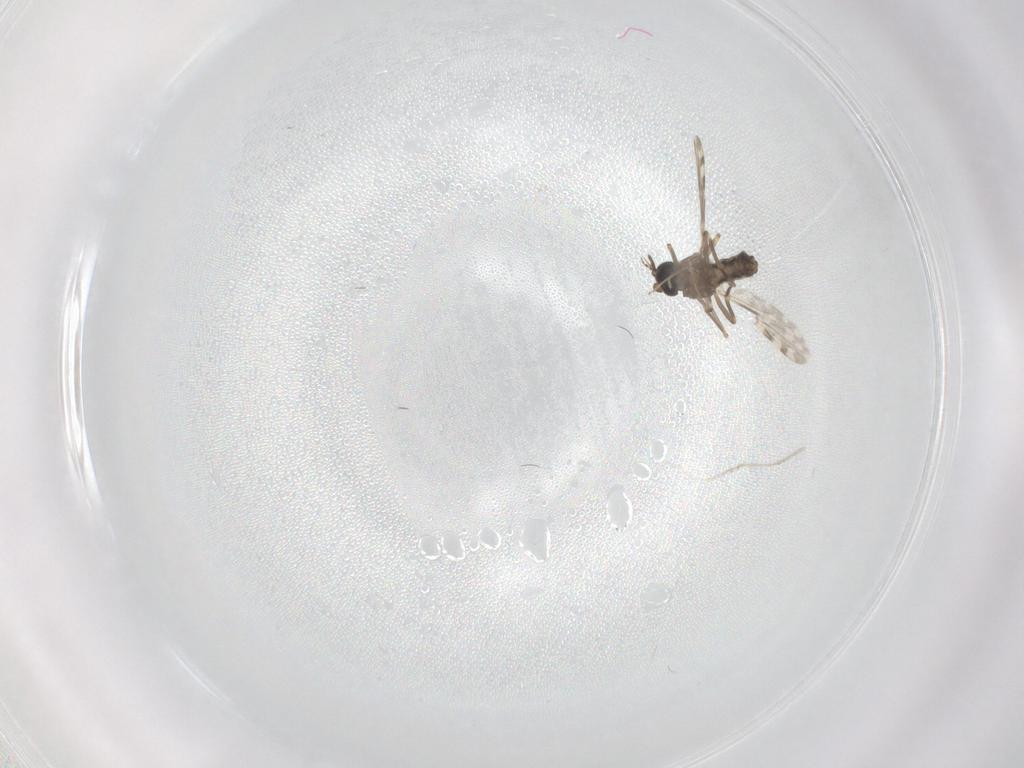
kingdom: Animalia
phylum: Arthropoda
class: Insecta
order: Diptera
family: Ceratopogonidae
